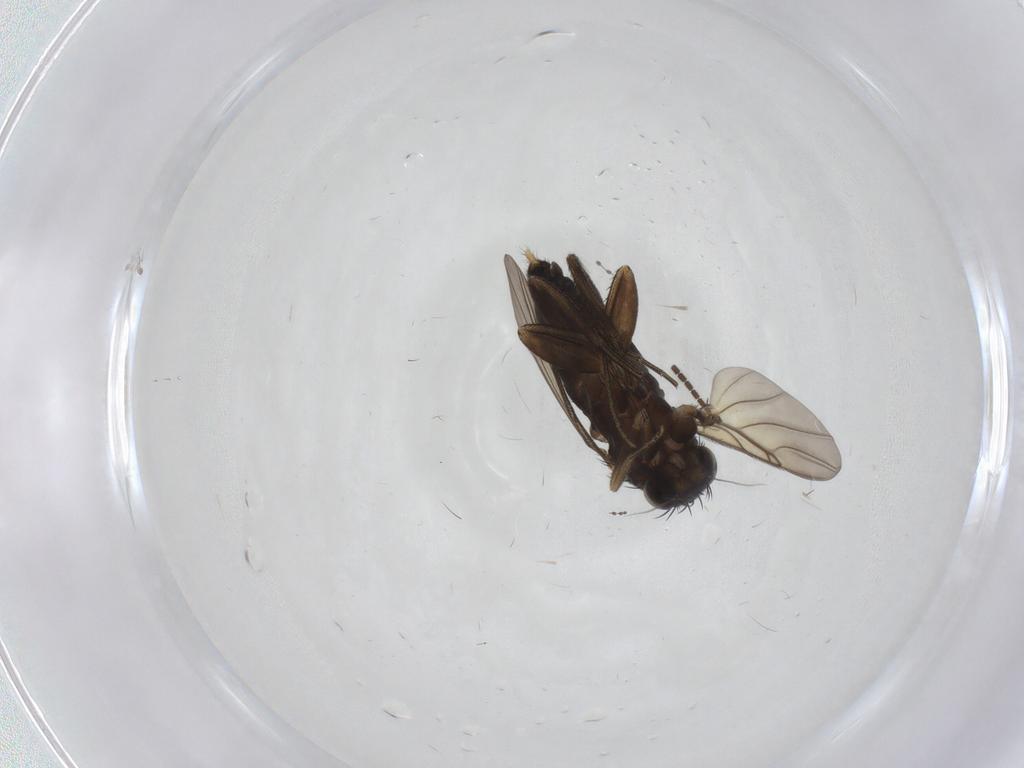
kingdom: Animalia
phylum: Arthropoda
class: Insecta
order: Diptera
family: Phoridae
